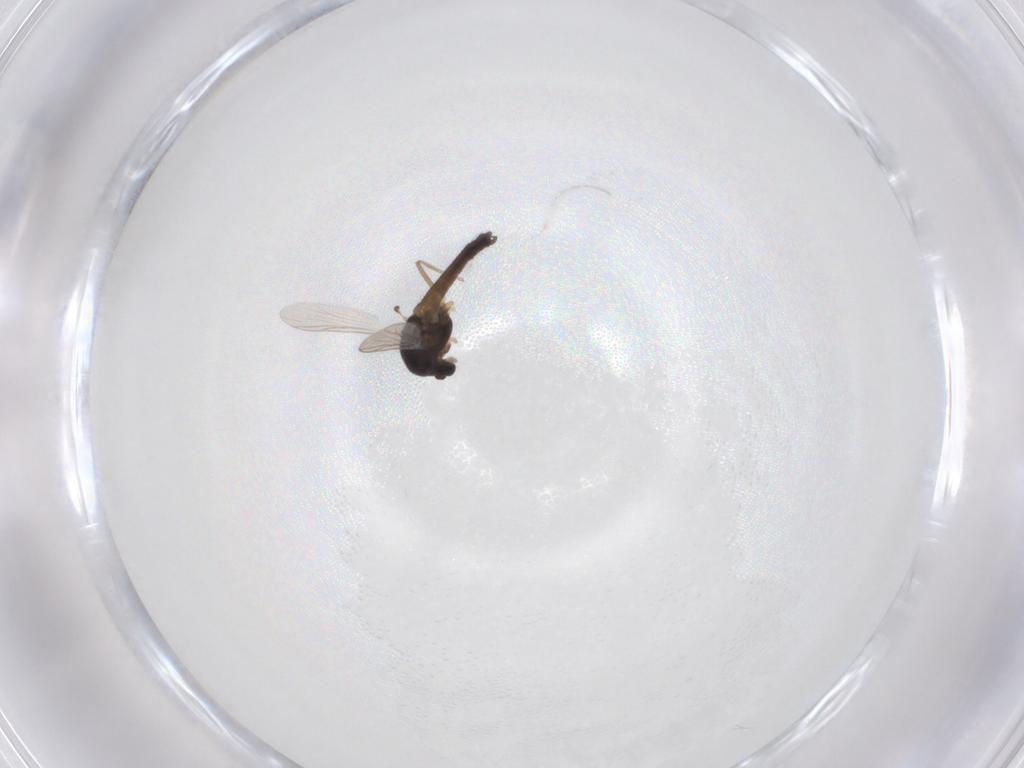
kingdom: Animalia
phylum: Arthropoda
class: Insecta
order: Diptera
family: Chironomidae
